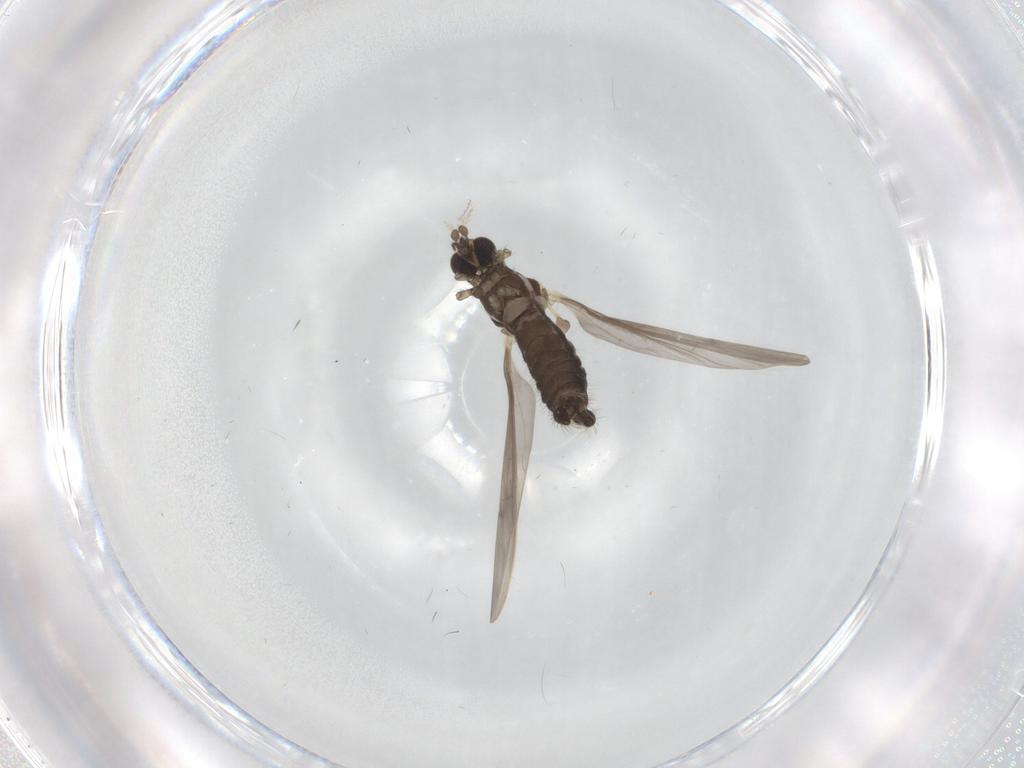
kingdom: Animalia
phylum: Arthropoda
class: Insecta
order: Diptera
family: Limoniidae
